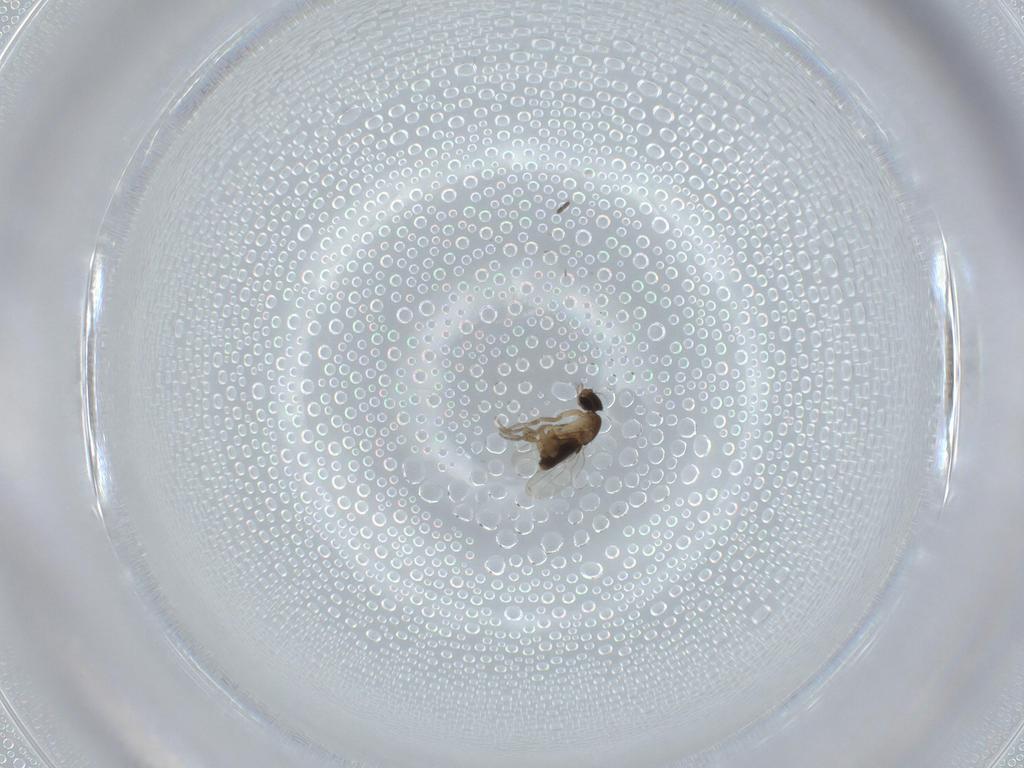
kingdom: Animalia
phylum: Arthropoda
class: Insecta
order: Diptera
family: Phoridae
